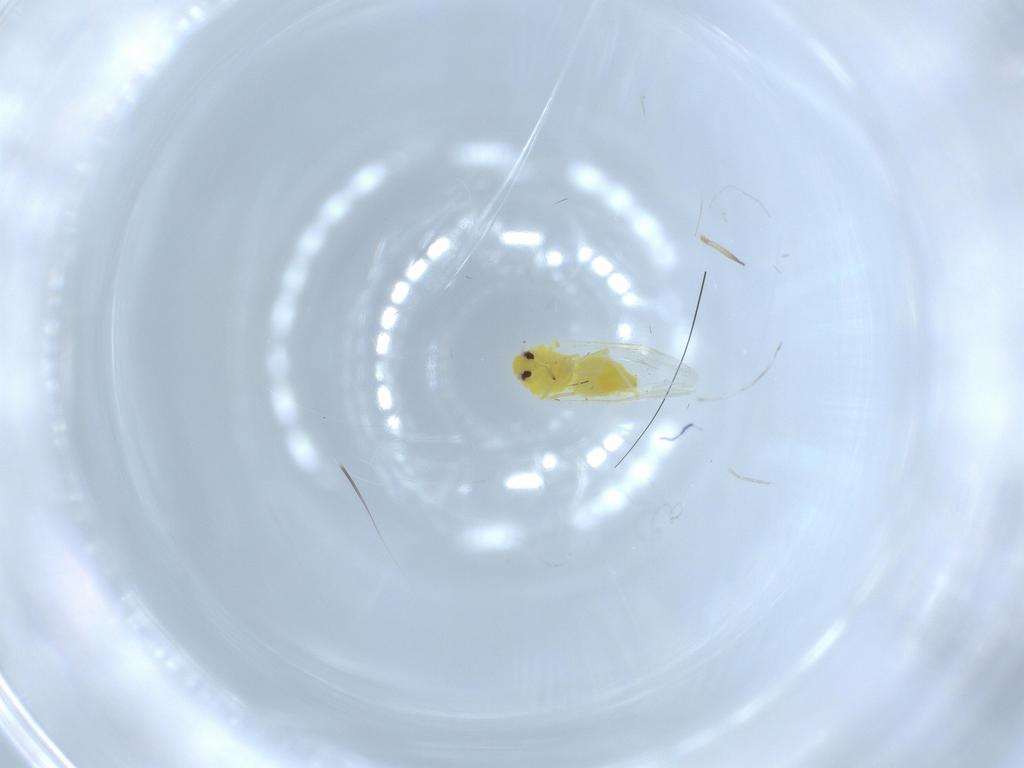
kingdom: Animalia
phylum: Arthropoda
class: Insecta
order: Hemiptera
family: Aleyrodidae
